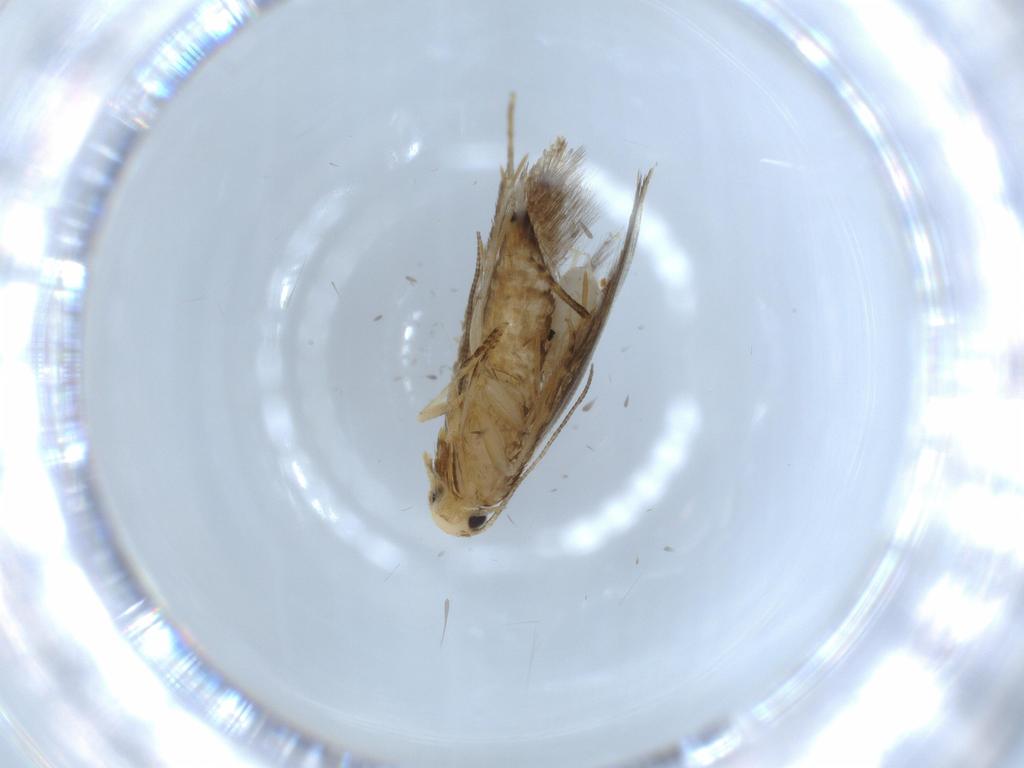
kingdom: Animalia
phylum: Arthropoda
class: Insecta
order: Lepidoptera
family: Tineidae
